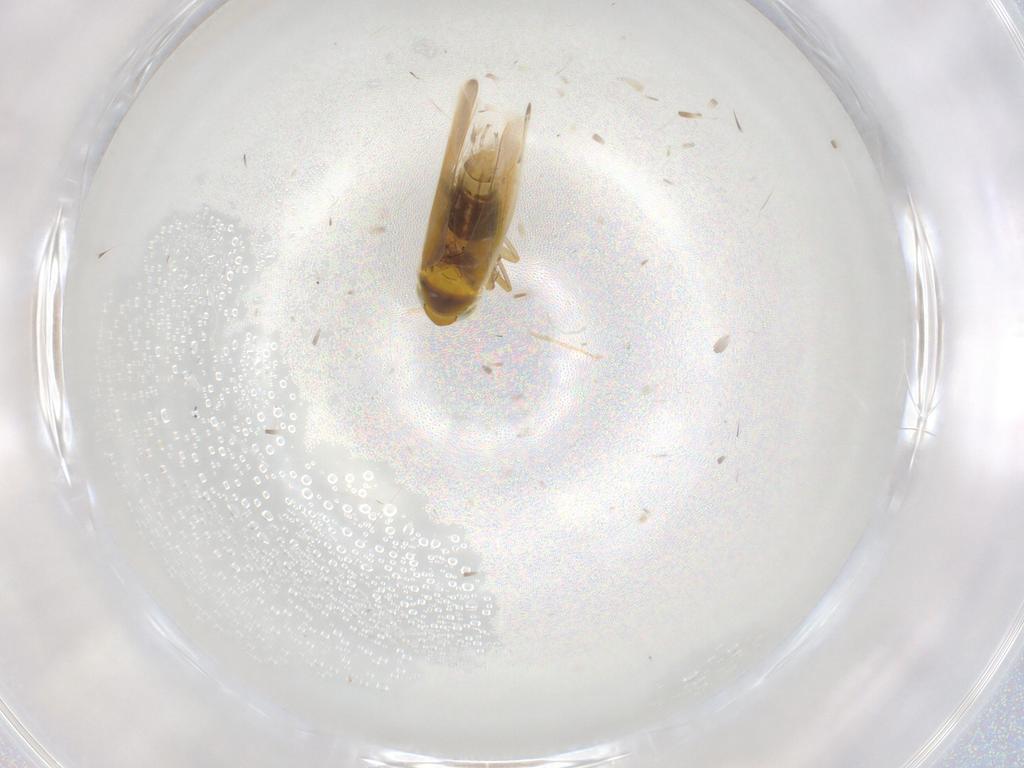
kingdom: Animalia
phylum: Arthropoda
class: Insecta
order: Hemiptera
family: Cicadellidae
